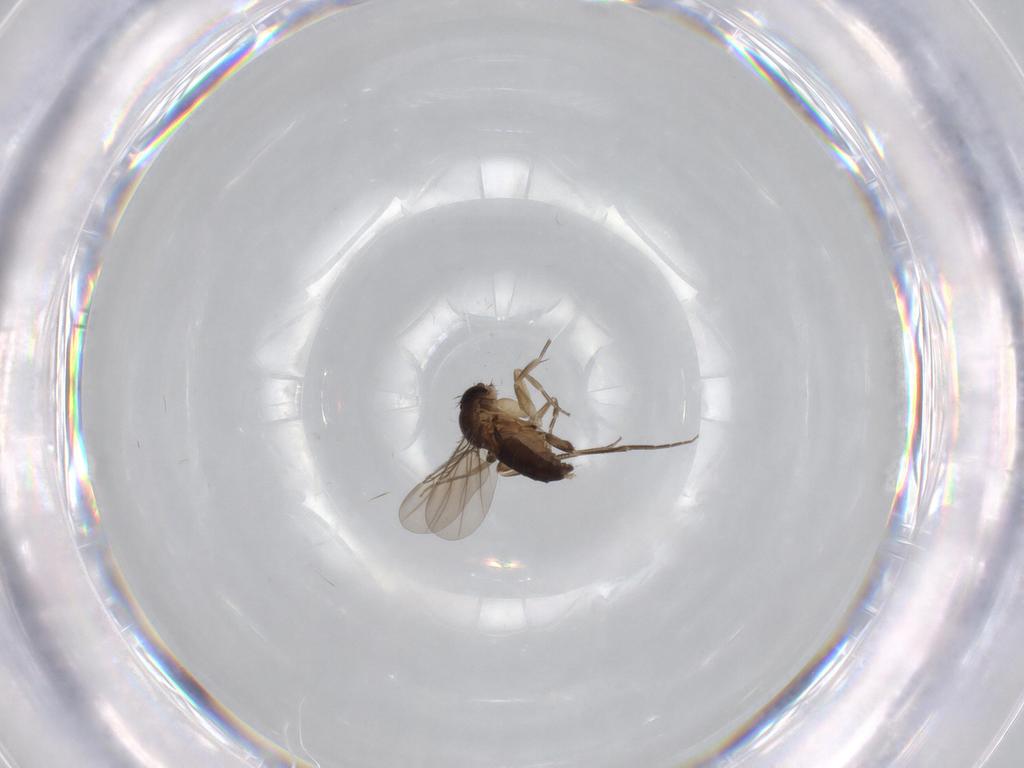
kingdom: Animalia
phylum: Arthropoda
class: Insecta
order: Diptera
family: Phoridae
